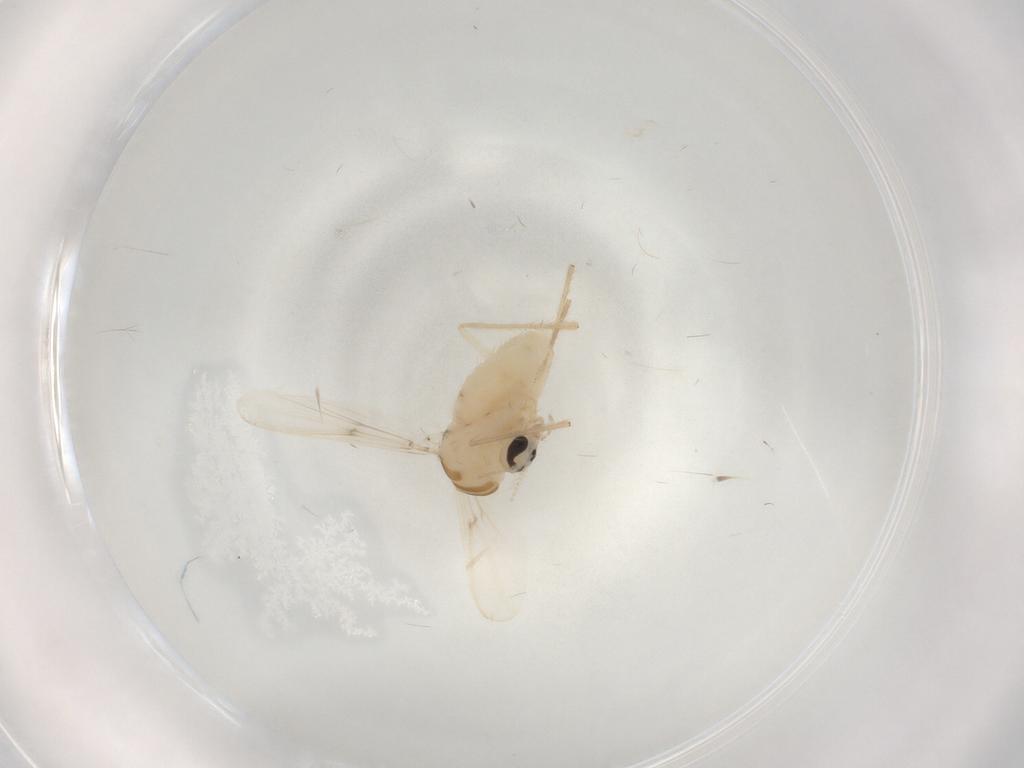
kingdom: Animalia
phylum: Arthropoda
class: Insecta
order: Diptera
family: Chironomidae
